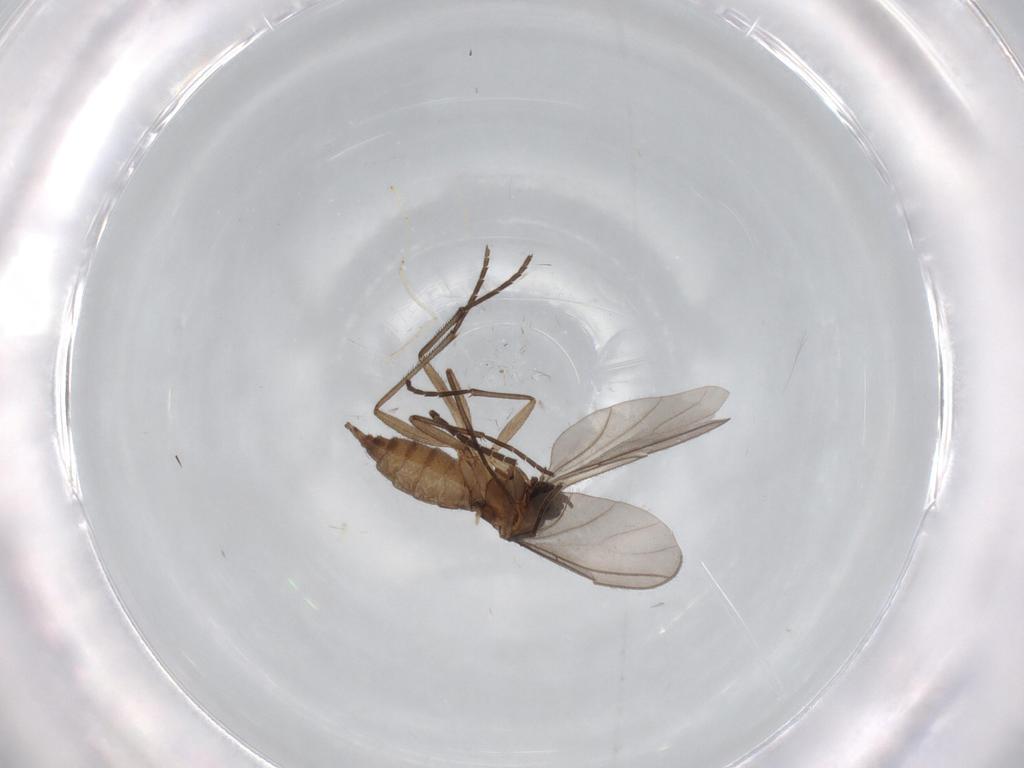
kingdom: Animalia
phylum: Arthropoda
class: Insecta
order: Diptera
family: Sciaridae
